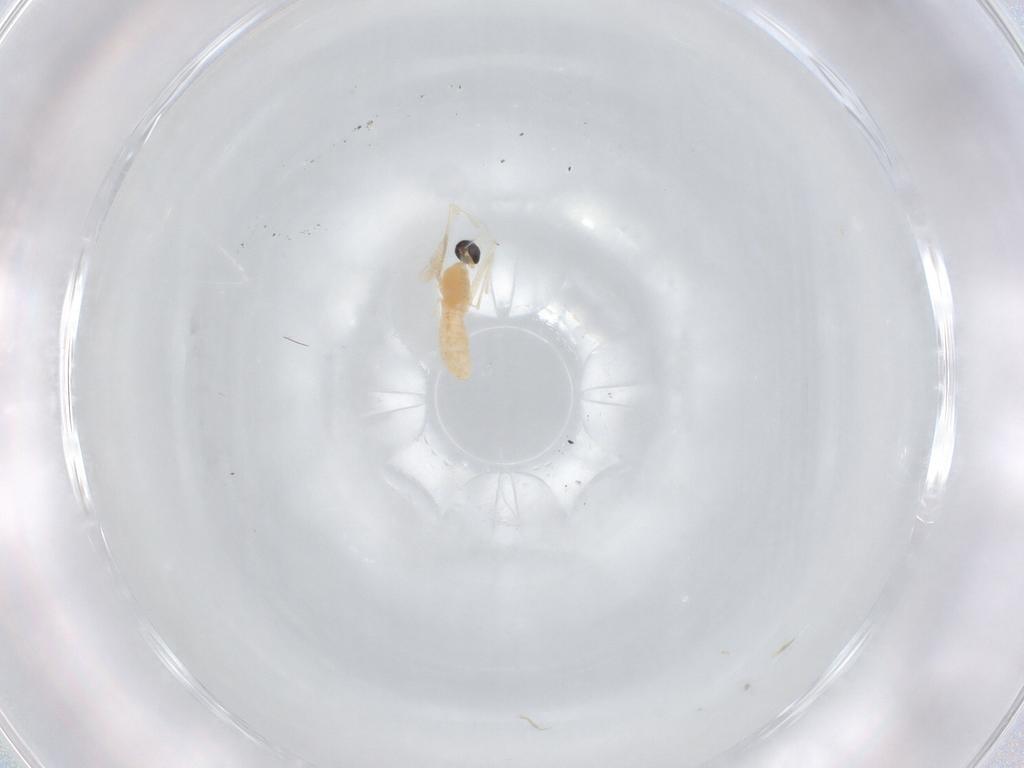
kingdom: Animalia
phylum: Arthropoda
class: Insecta
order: Diptera
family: Cecidomyiidae
